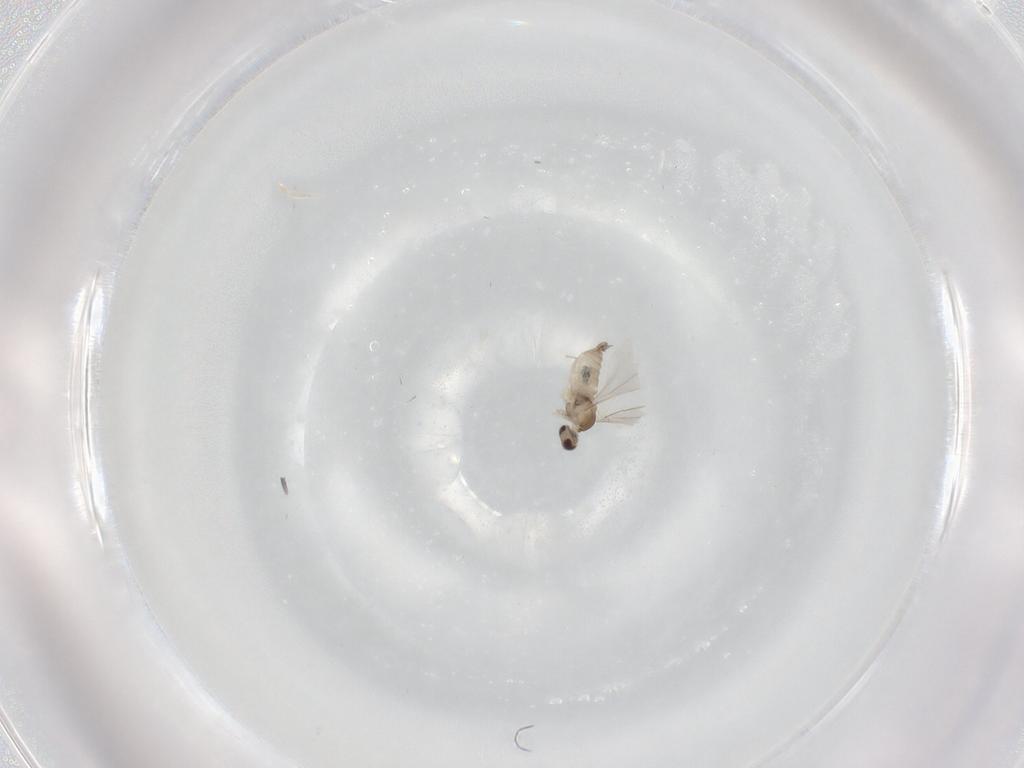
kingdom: Animalia
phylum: Arthropoda
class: Insecta
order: Diptera
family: Cecidomyiidae
